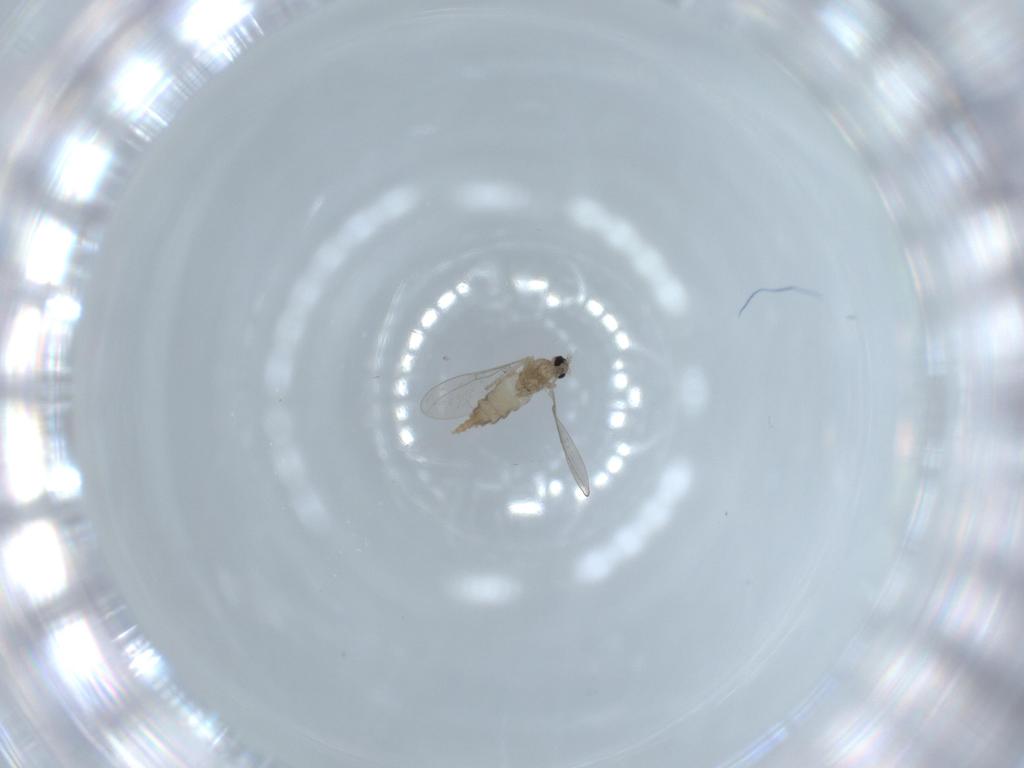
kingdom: Animalia
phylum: Arthropoda
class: Insecta
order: Diptera
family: Cecidomyiidae
